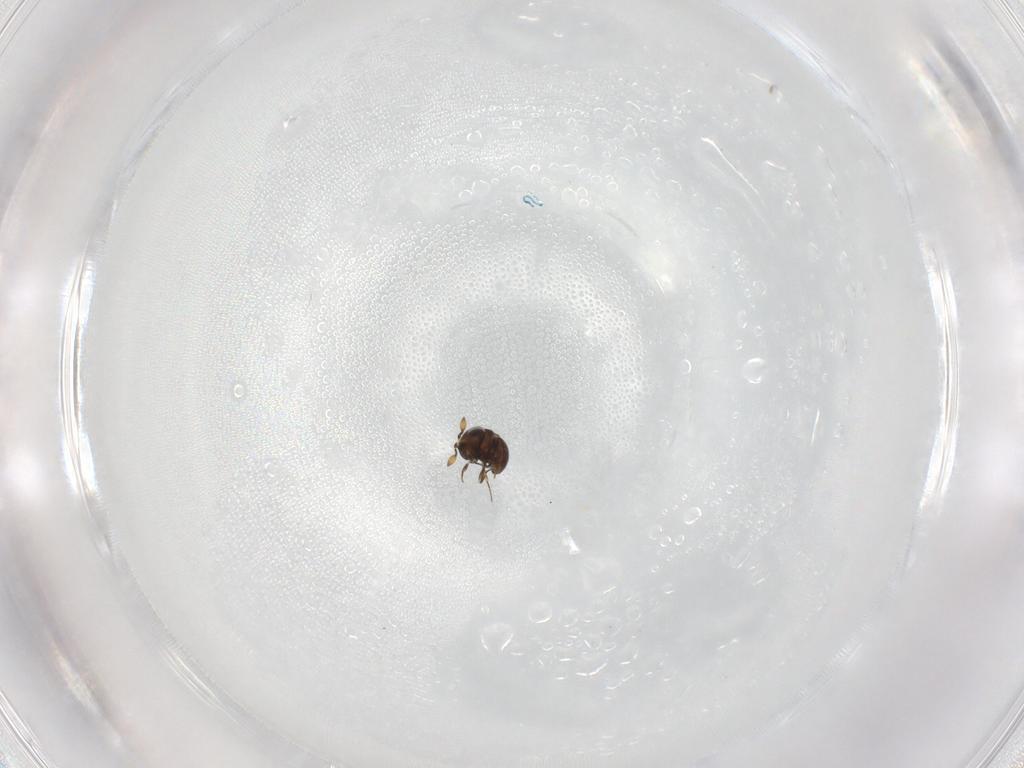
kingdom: Animalia
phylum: Arthropoda
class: Insecta
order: Hymenoptera
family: Scelionidae
